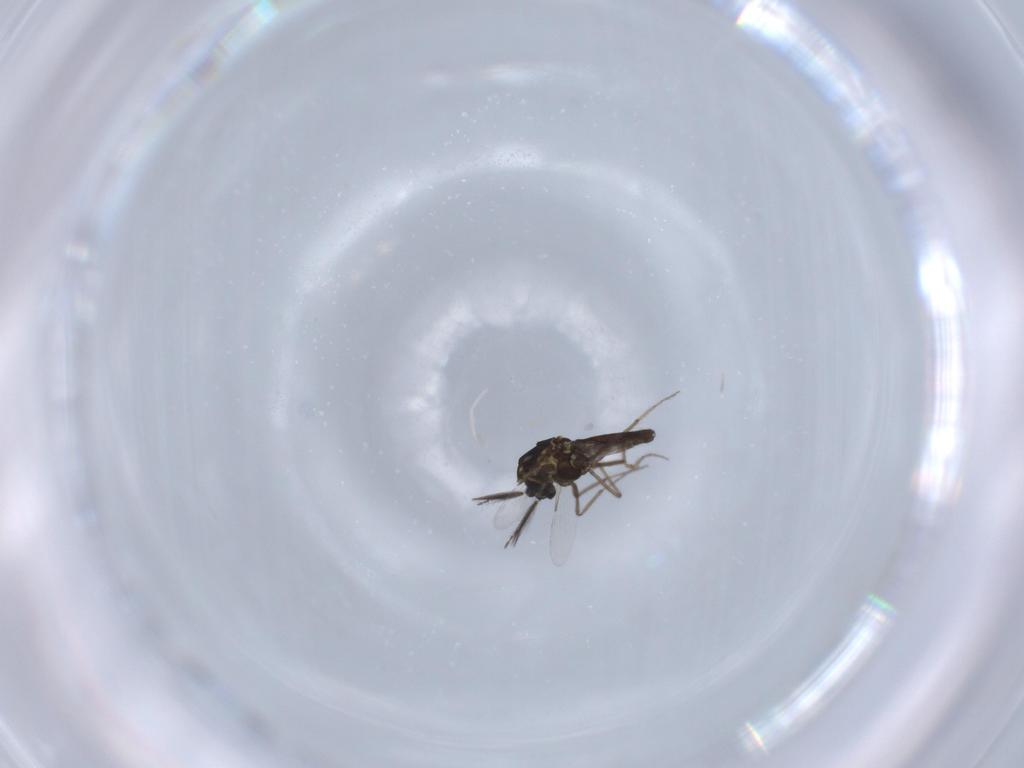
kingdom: Animalia
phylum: Arthropoda
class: Insecta
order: Diptera
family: Ceratopogonidae
